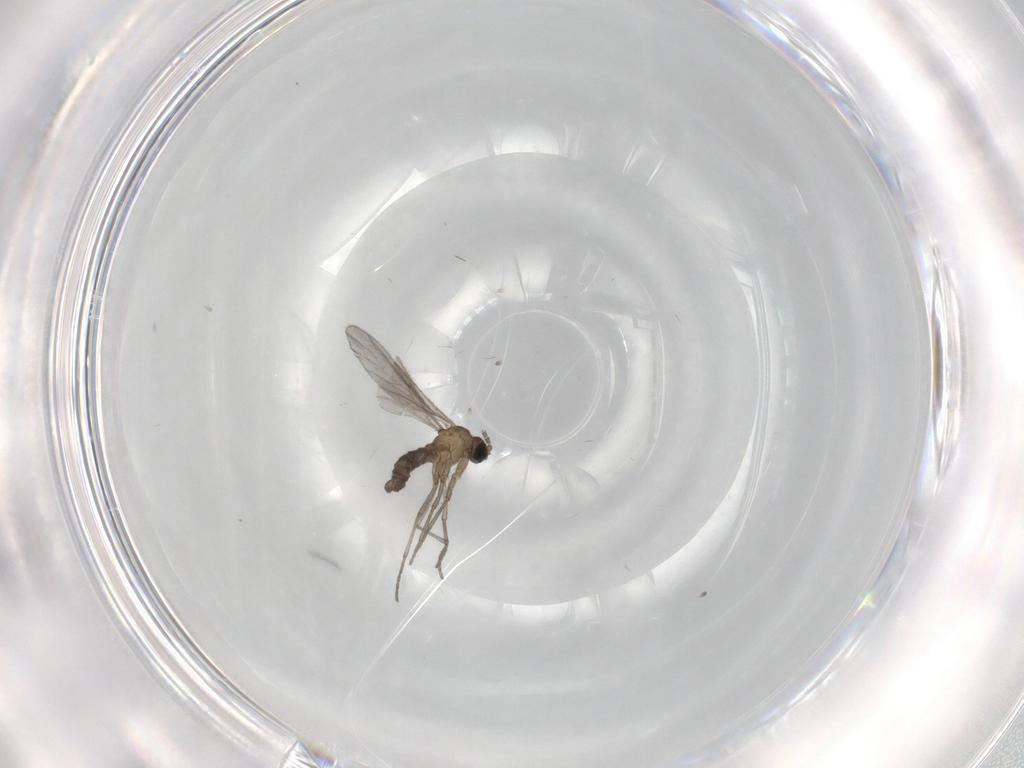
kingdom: Animalia
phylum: Arthropoda
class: Insecta
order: Diptera
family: Sciaridae
